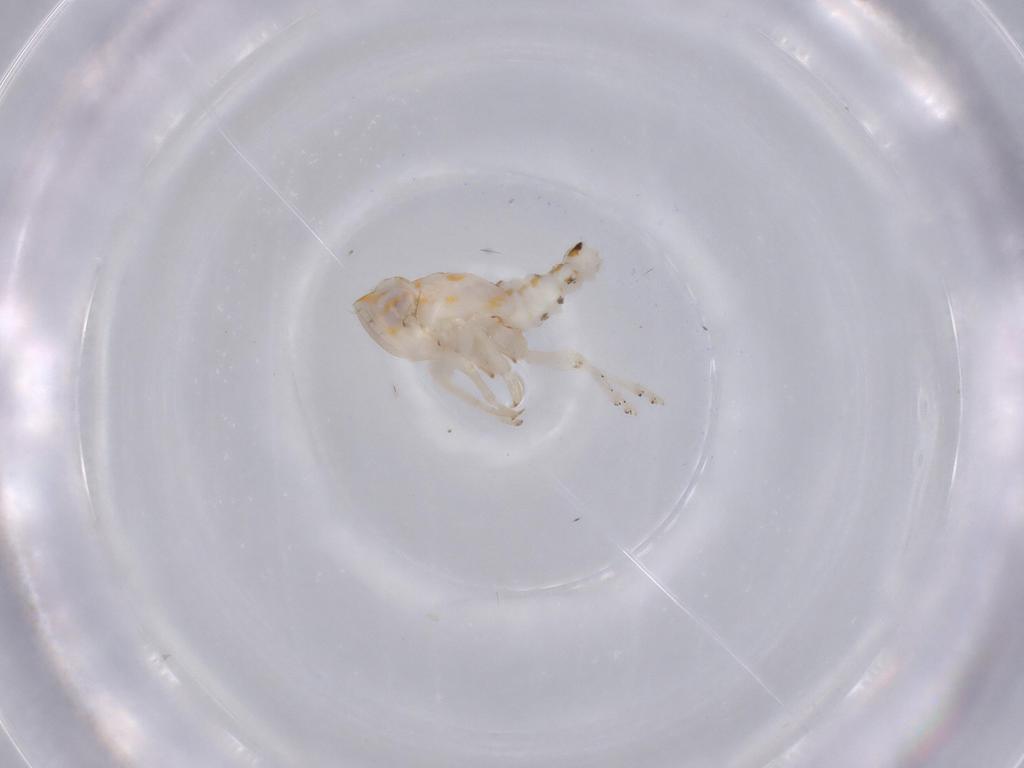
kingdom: Animalia
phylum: Arthropoda
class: Insecta
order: Hemiptera
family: Nogodinidae
